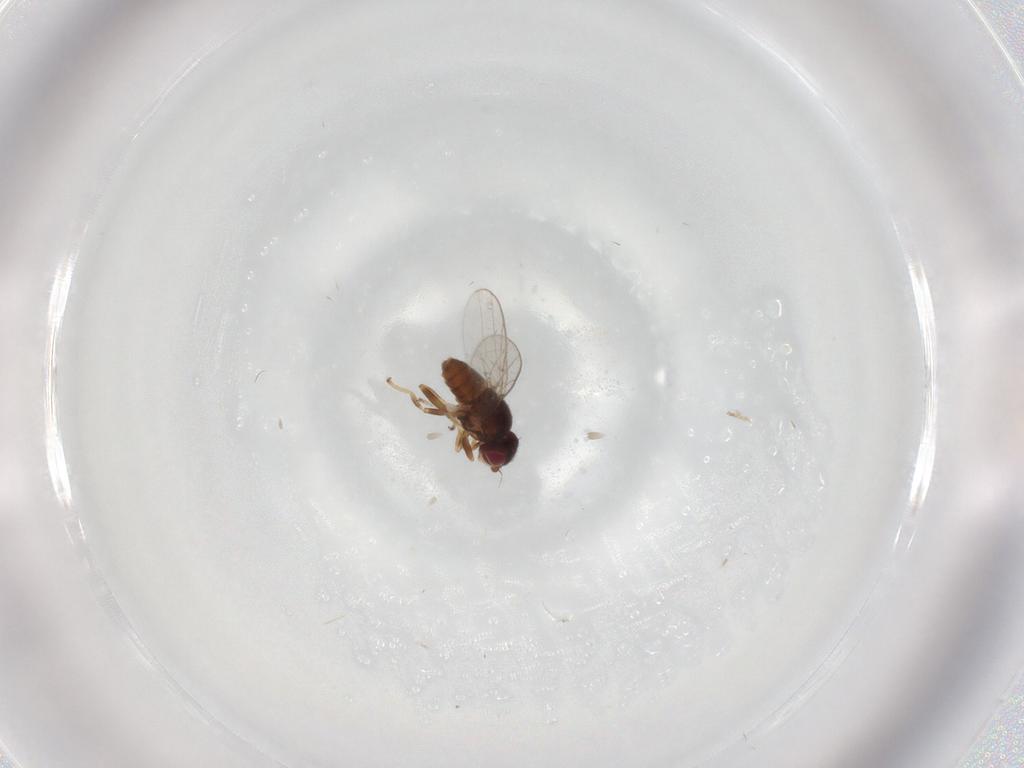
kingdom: Animalia
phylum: Arthropoda
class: Insecta
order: Diptera
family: Chloropidae
